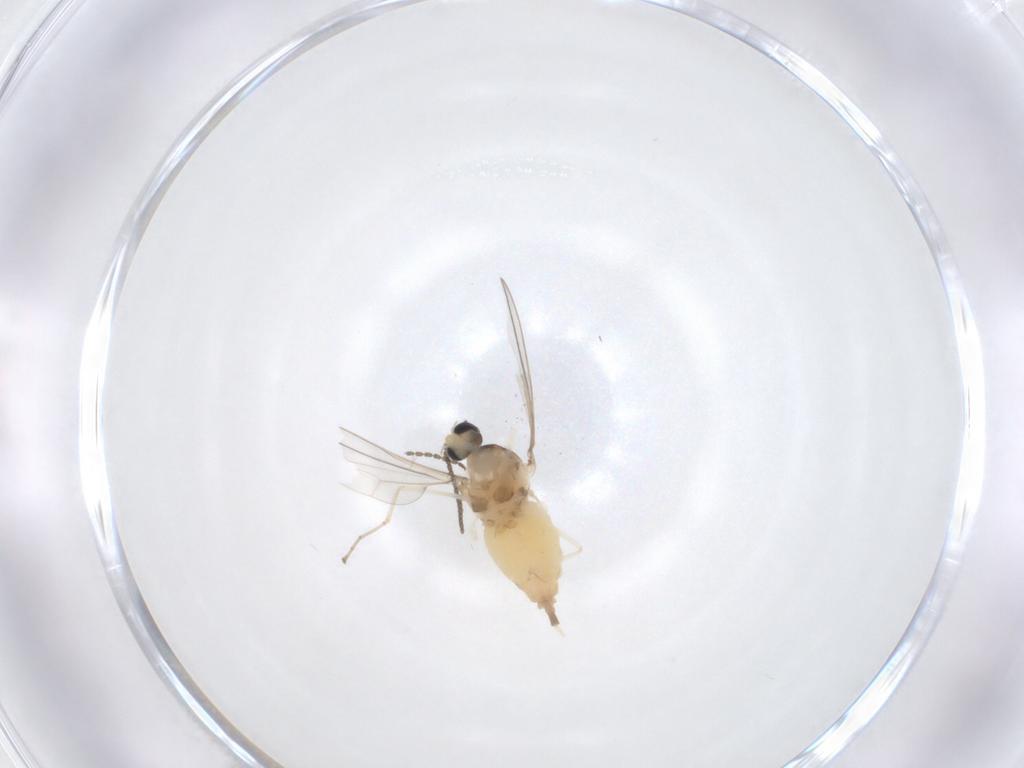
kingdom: Animalia
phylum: Arthropoda
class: Insecta
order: Diptera
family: Cecidomyiidae
